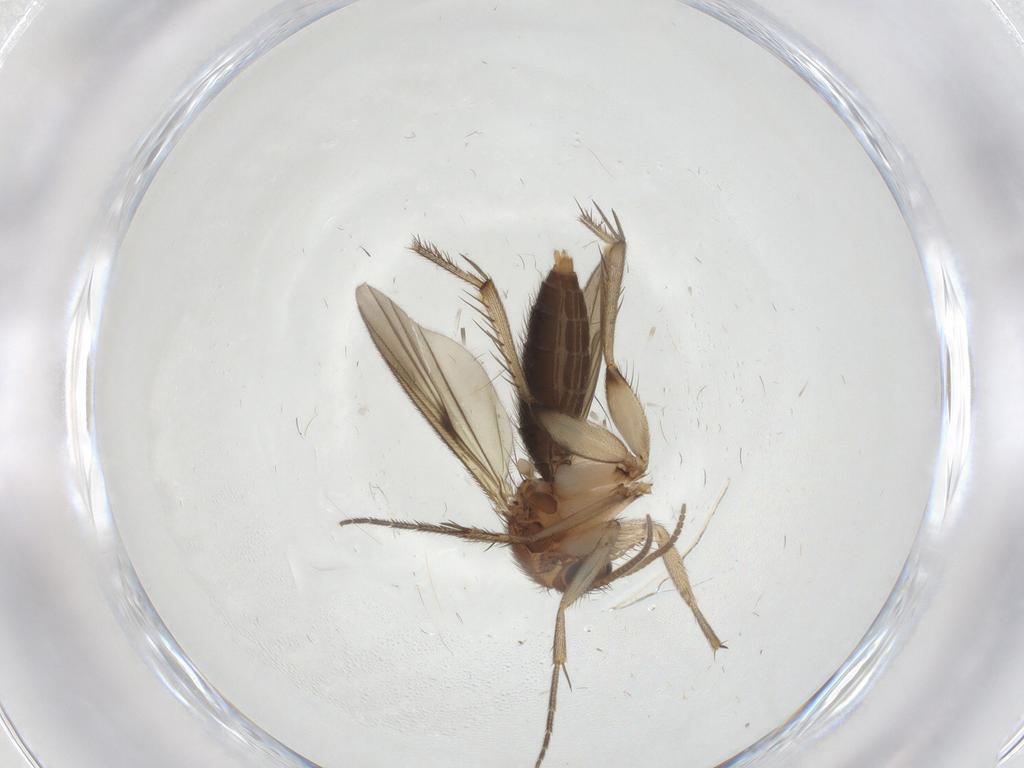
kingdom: Animalia
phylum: Arthropoda
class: Insecta
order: Diptera
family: Mycetophilidae
